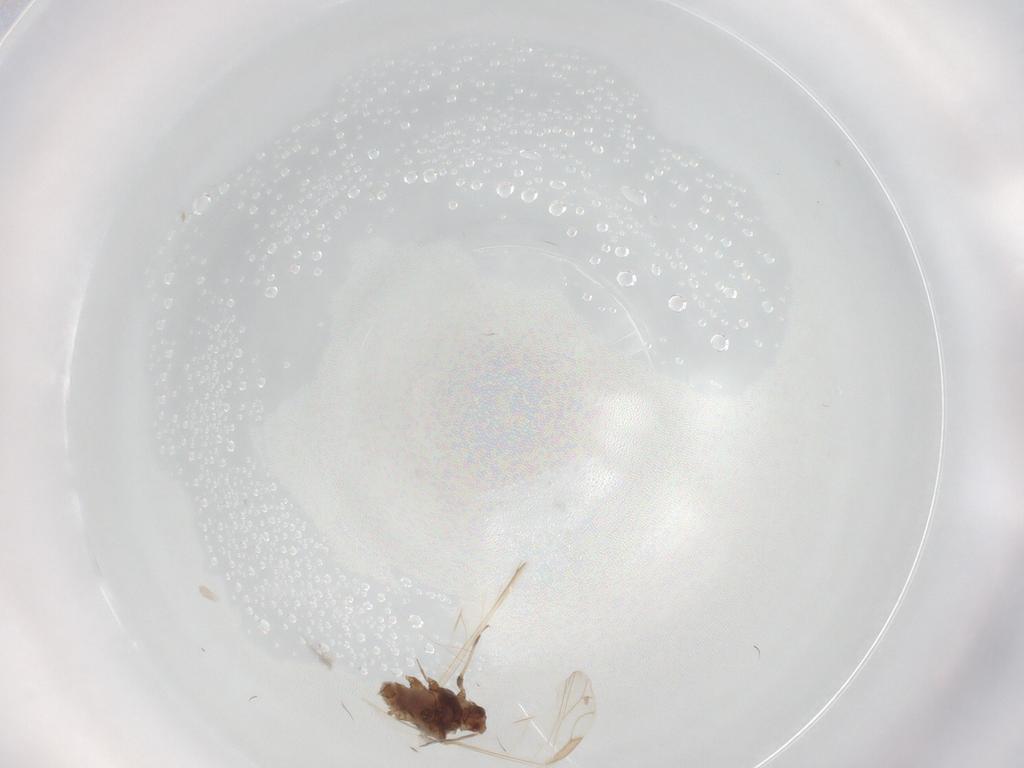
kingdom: Animalia
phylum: Arthropoda
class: Insecta
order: Hemiptera
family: Aphididae
